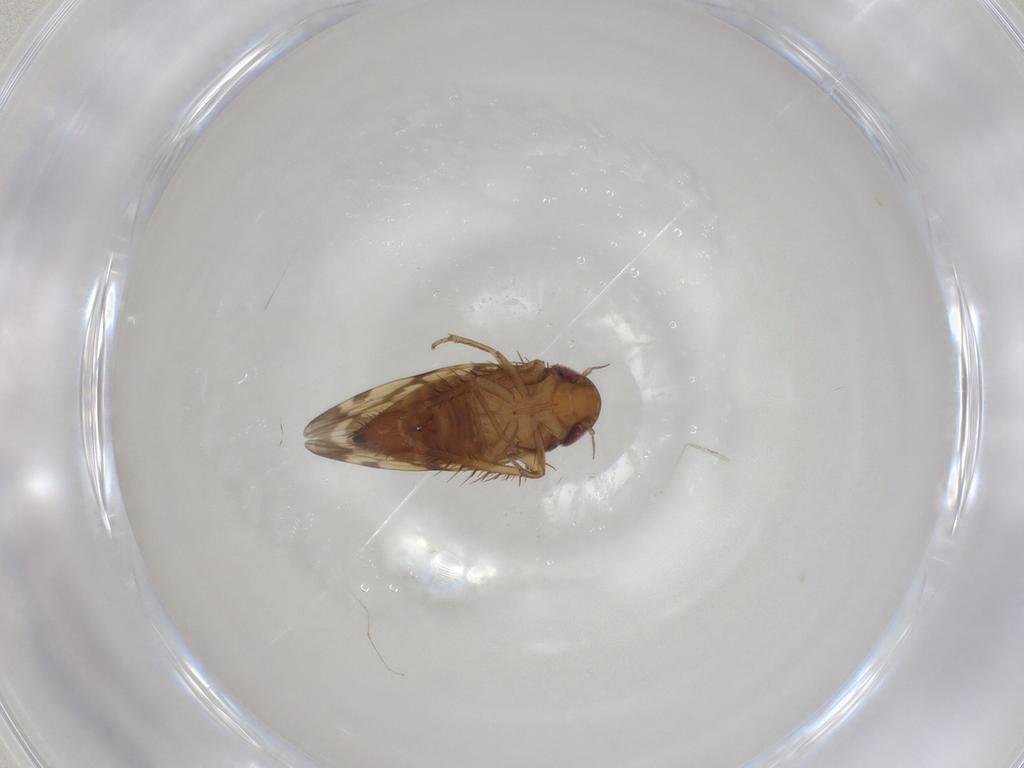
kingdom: Animalia
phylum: Arthropoda
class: Insecta
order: Hemiptera
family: Cicadellidae
